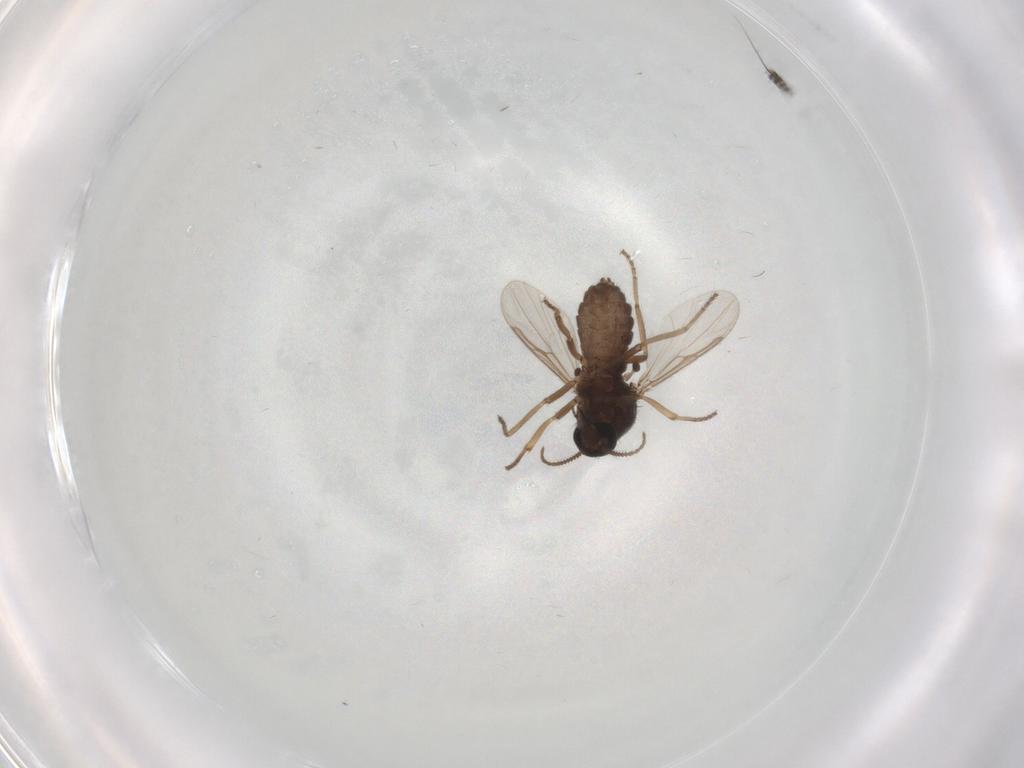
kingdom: Animalia
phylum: Arthropoda
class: Insecta
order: Diptera
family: Ceratopogonidae
